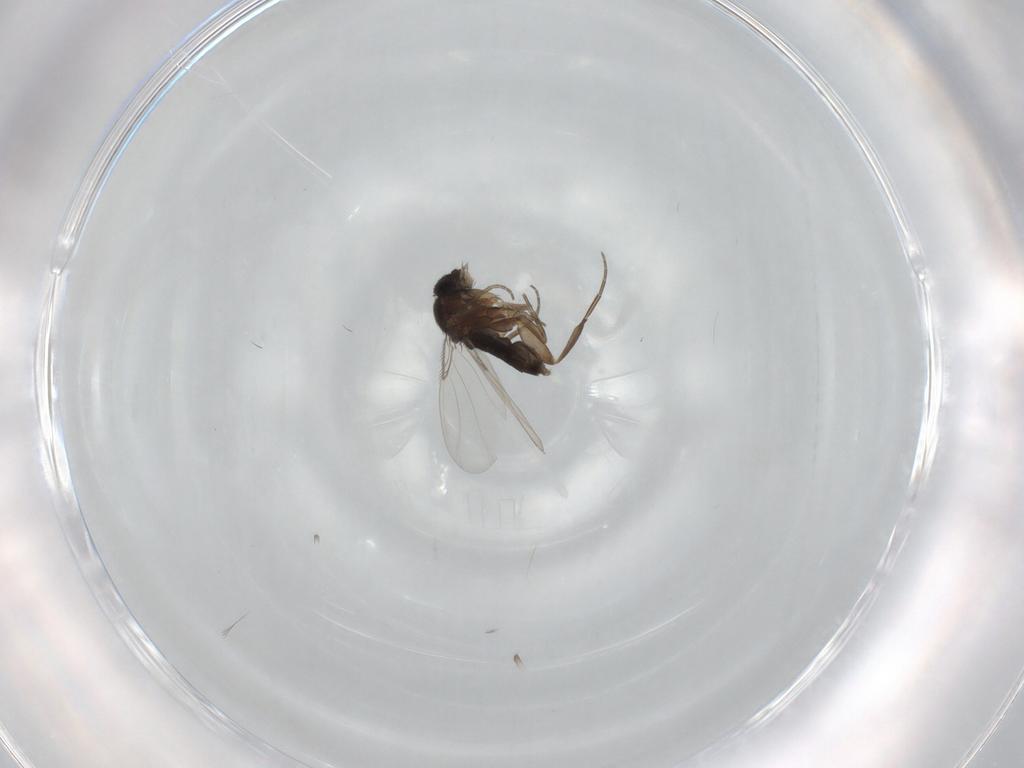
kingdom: Animalia
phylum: Arthropoda
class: Insecta
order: Diptera
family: Phoridae
